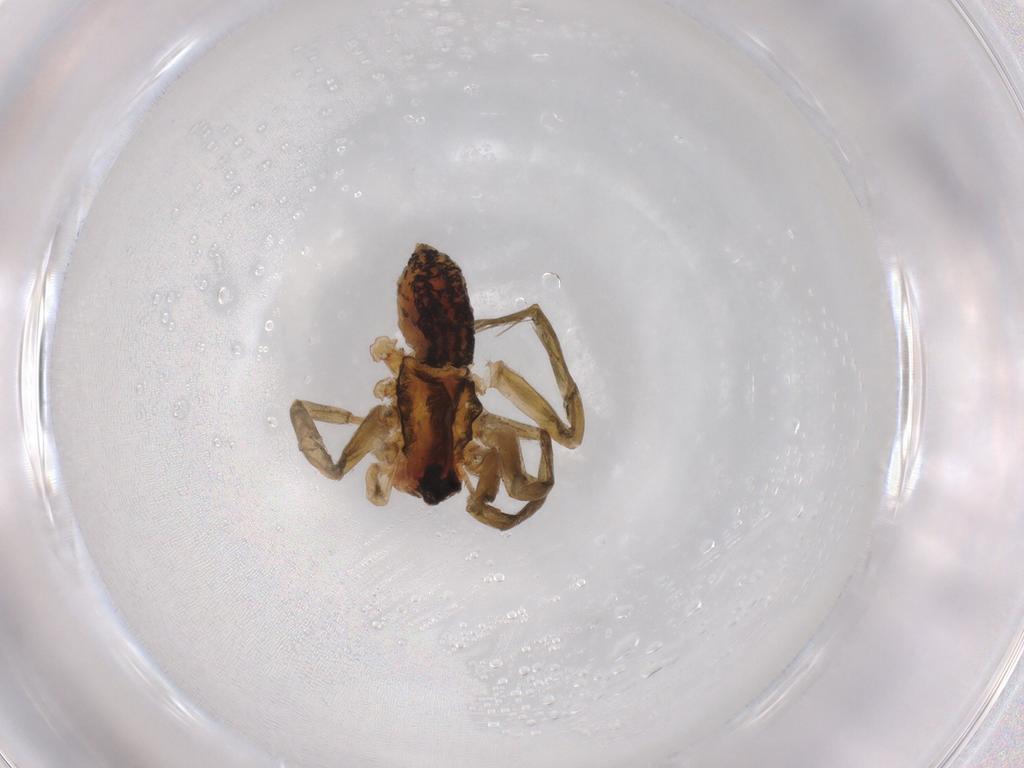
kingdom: Animalia
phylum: Arthropoda
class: Arachnida
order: Araneae
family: Lycosidae
